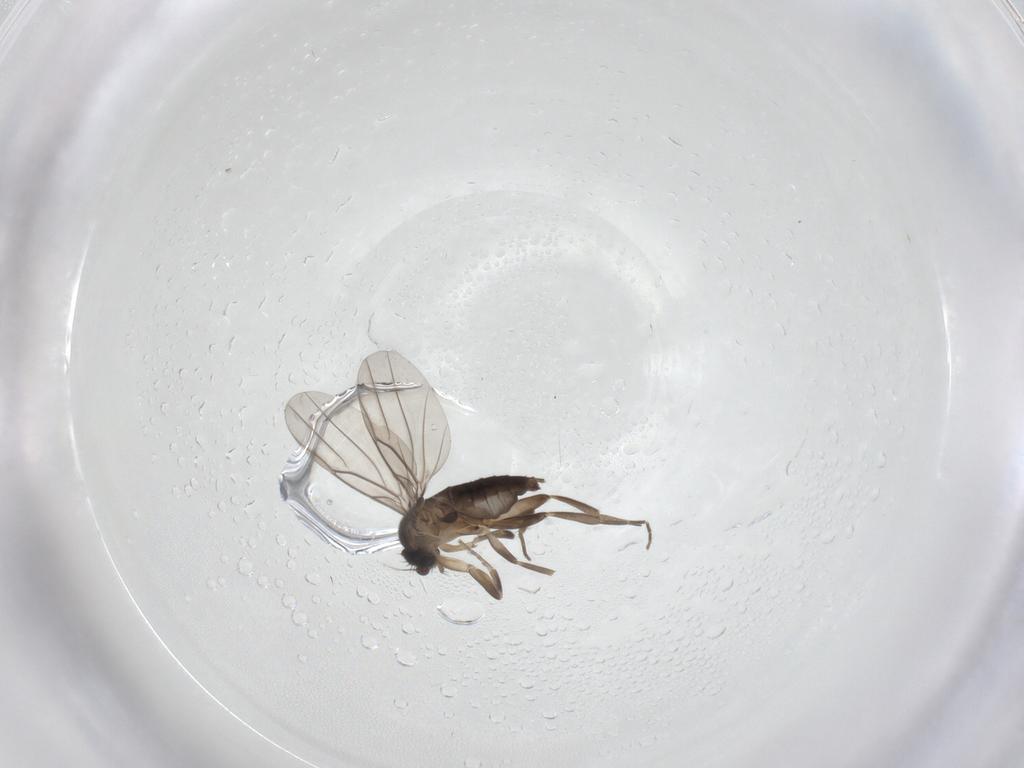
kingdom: Animalia
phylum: Arthropoda
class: Insecta
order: Diptera
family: Phoridae
